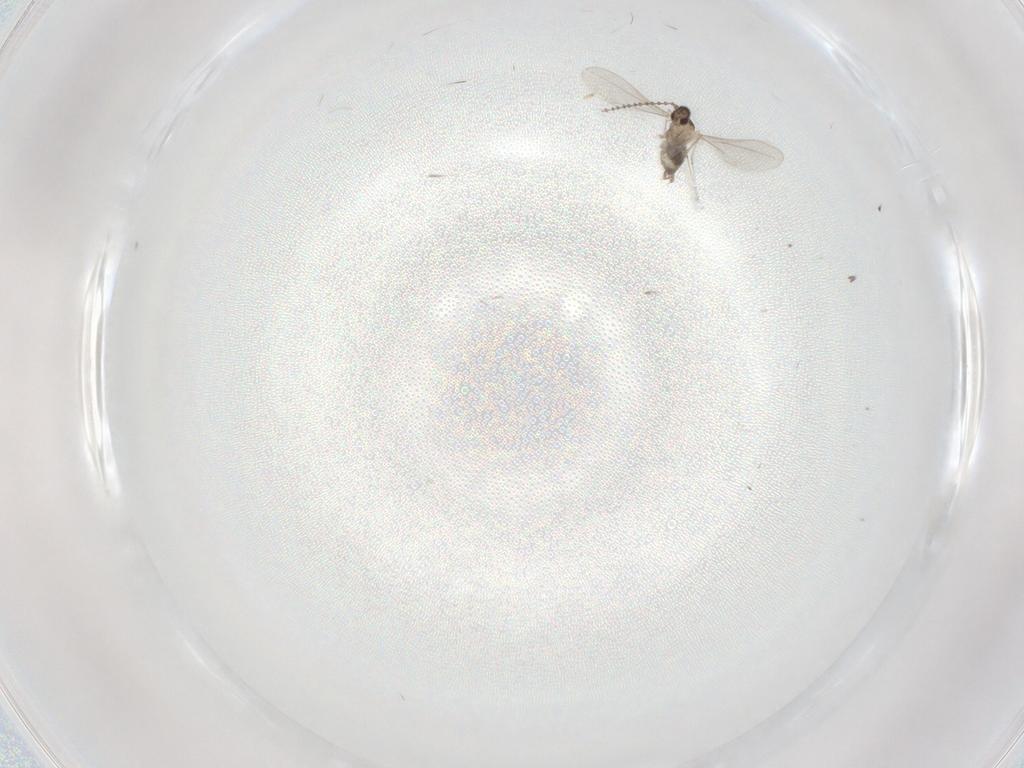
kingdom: Animalia
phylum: Arthropoda
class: Insecta
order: Diptera
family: Cecidomyiidae
